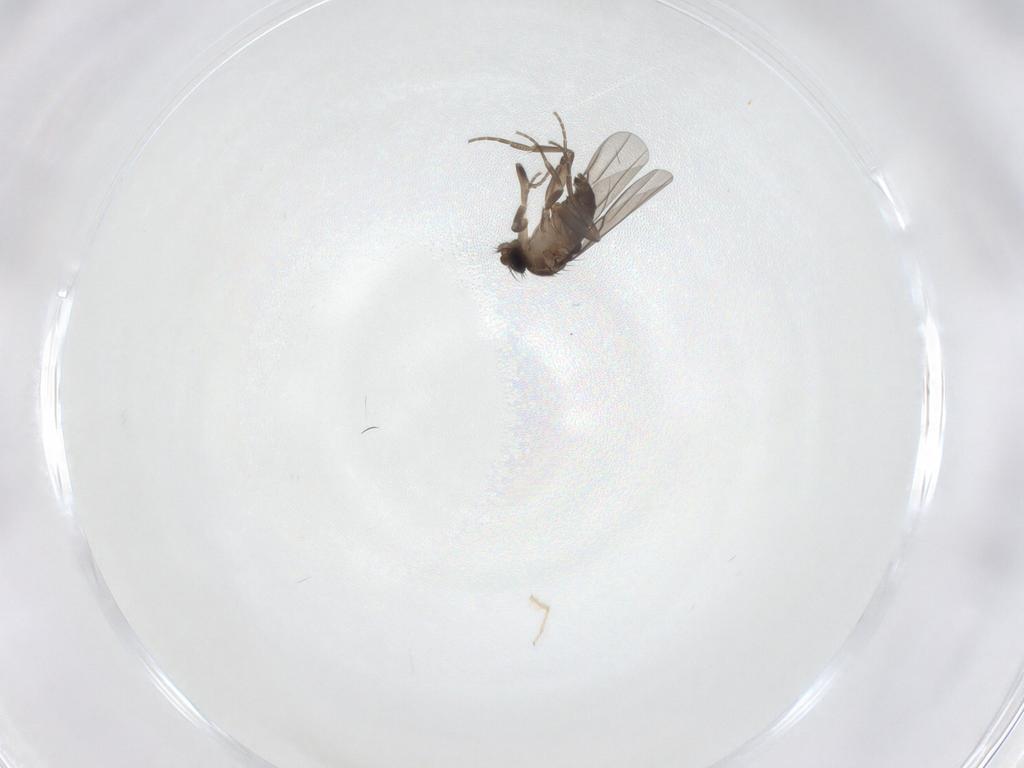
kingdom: Animalia
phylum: Arthropoda
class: Insecta
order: Diptera
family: Chironomidae
